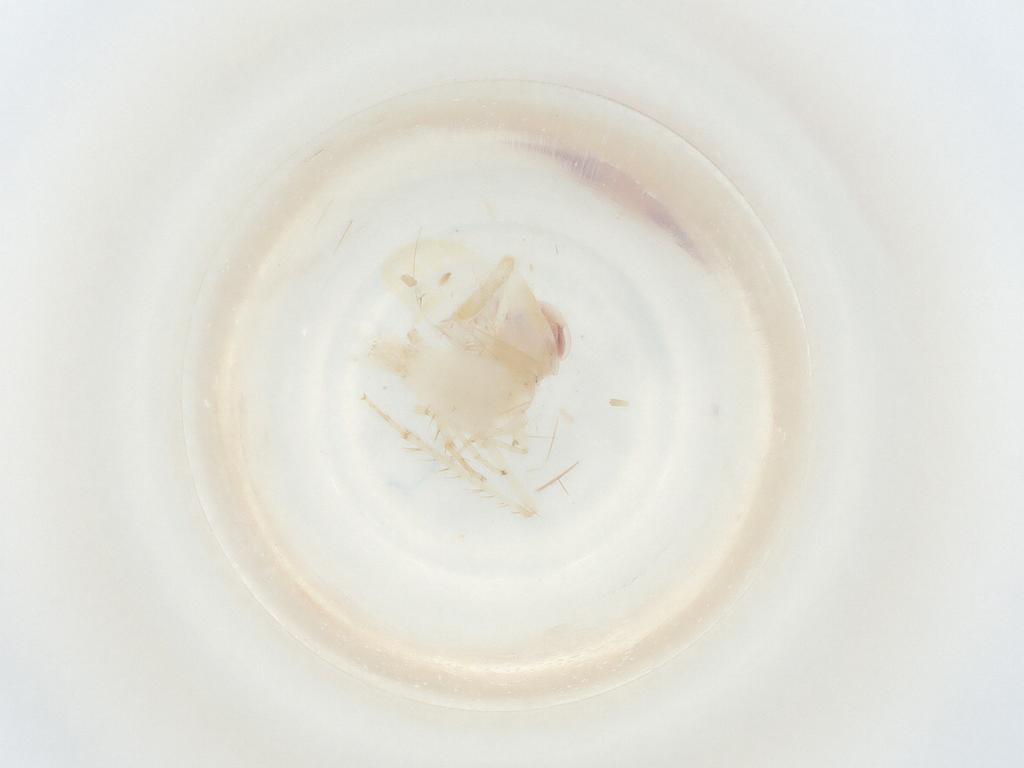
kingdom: Animalia
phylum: Arthropoda
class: Insecta
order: Hemiptera
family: Cicadellidae
